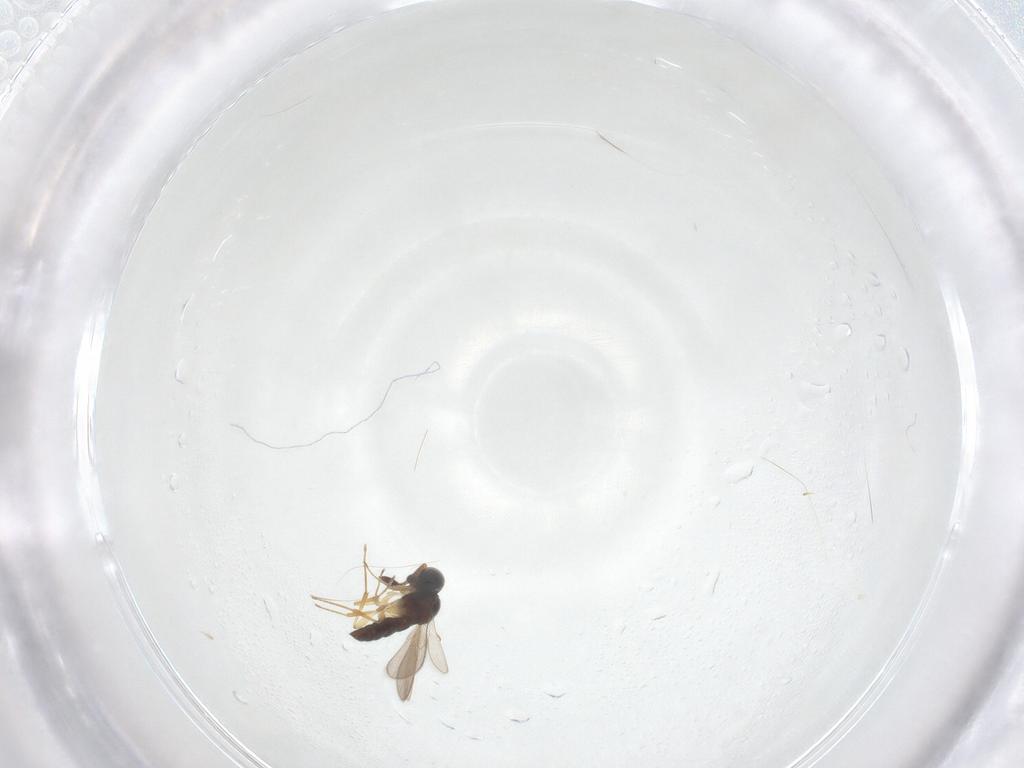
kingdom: Animalia
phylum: Arthropoda
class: Insecta
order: Hymenoptera
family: Scelionidae
